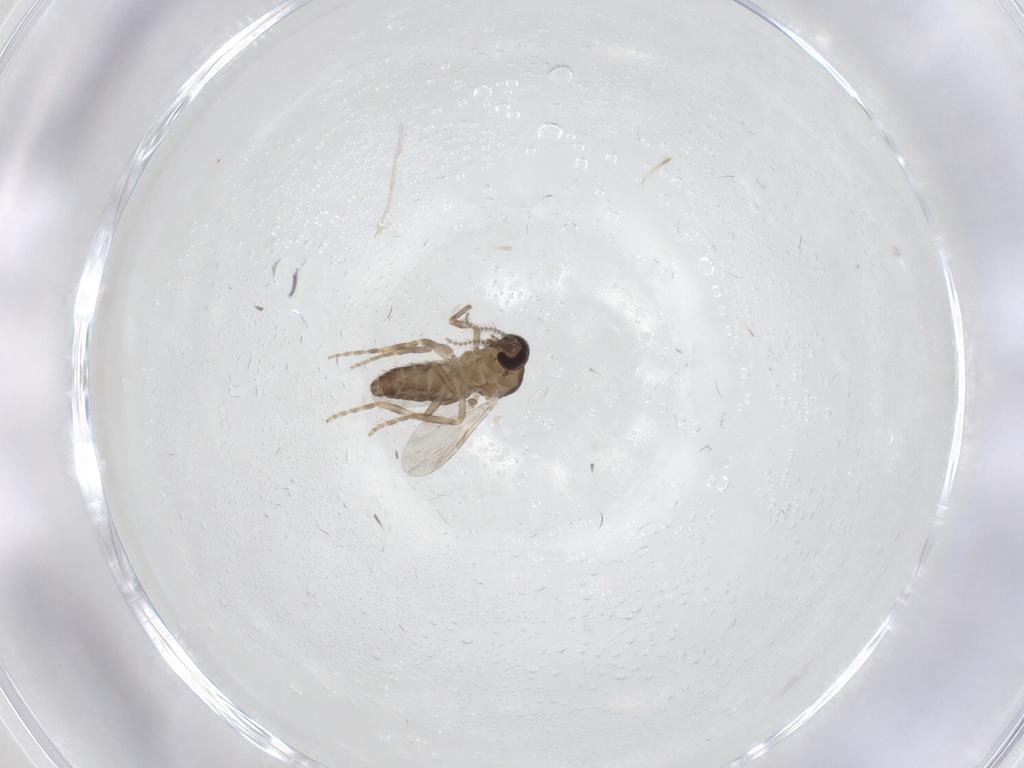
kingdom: Animalia
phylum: Arthropoda
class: Insecta
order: Diptera
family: Ceratopogonidae
